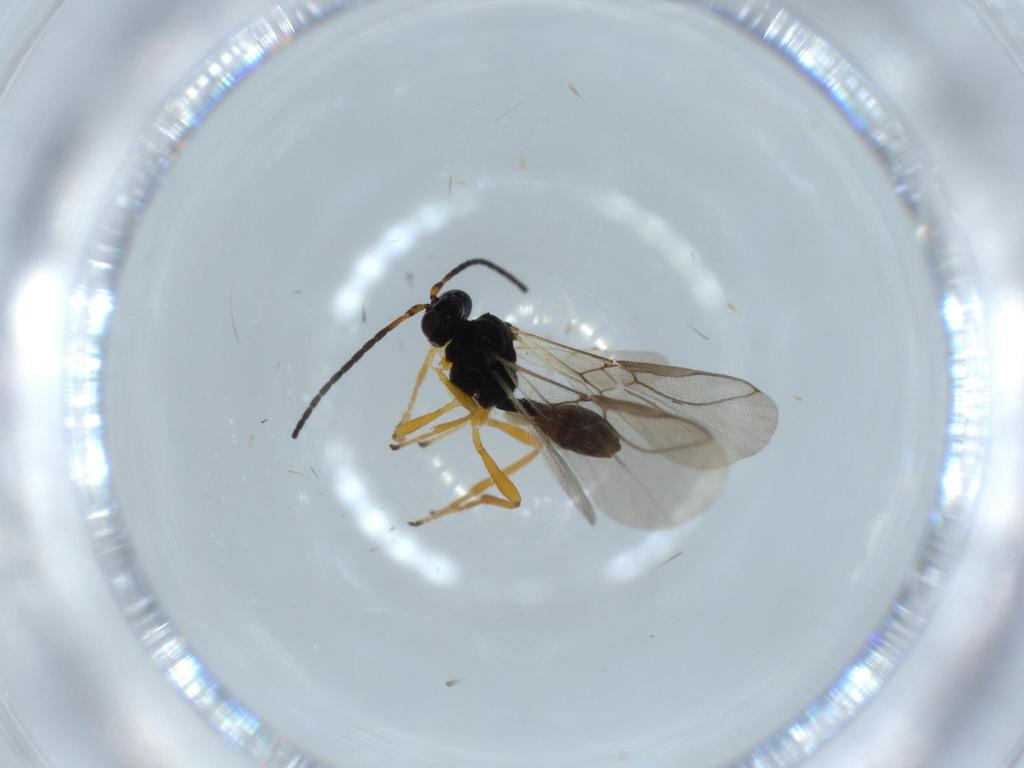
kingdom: Animalia
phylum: Arthropoda
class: Insecta
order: Hymenoptera
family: Braconidae
